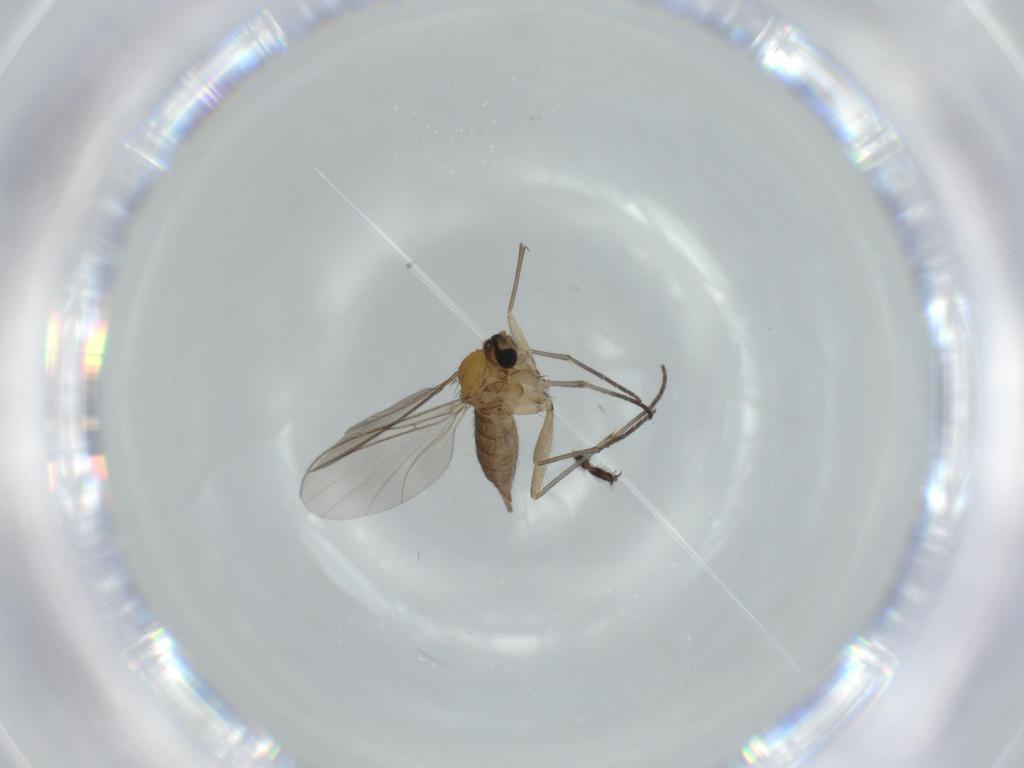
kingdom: Animalia
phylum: Arthropoda
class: Insecta
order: Diptera
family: Sciaridae
